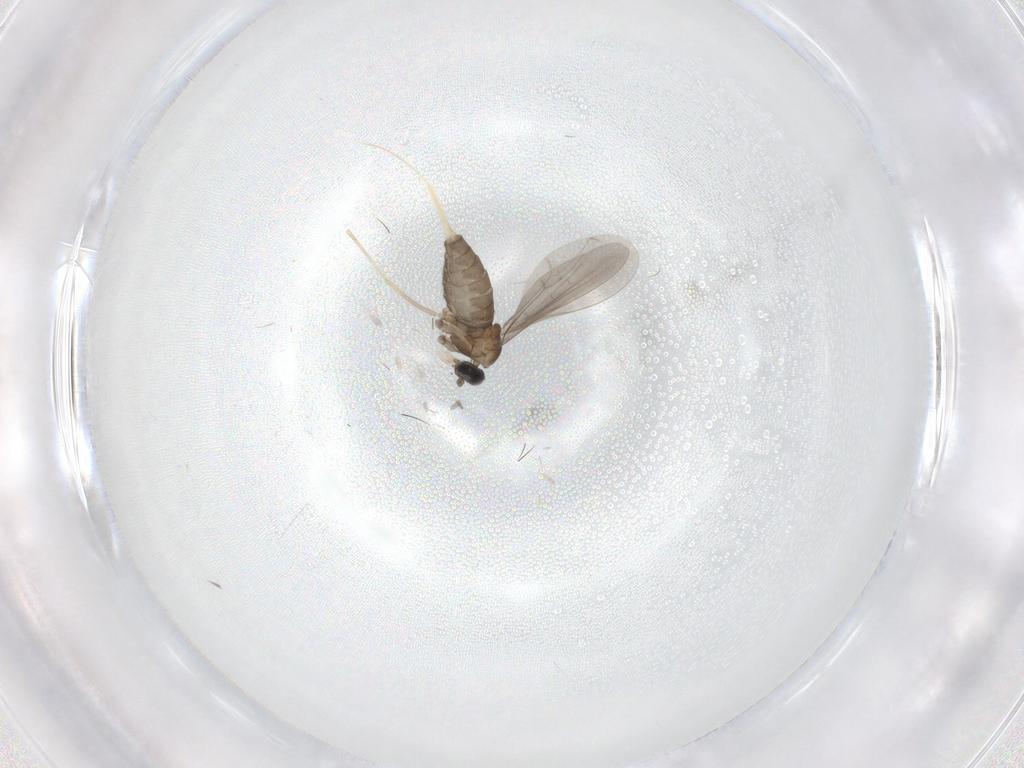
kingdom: Animalia
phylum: Arthropoda
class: Insecta
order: Diptera
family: Cecidomyiidae
